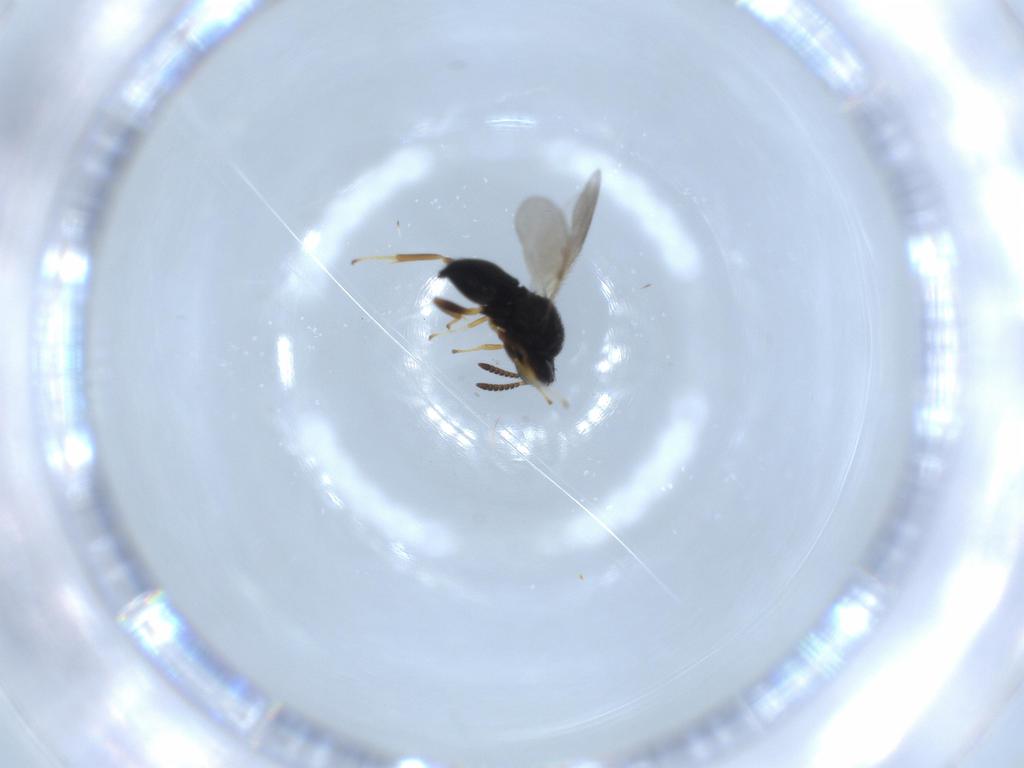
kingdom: Animalia
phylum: Arthropoda
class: Insecta
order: Hymenoptera
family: Pteromalidae
